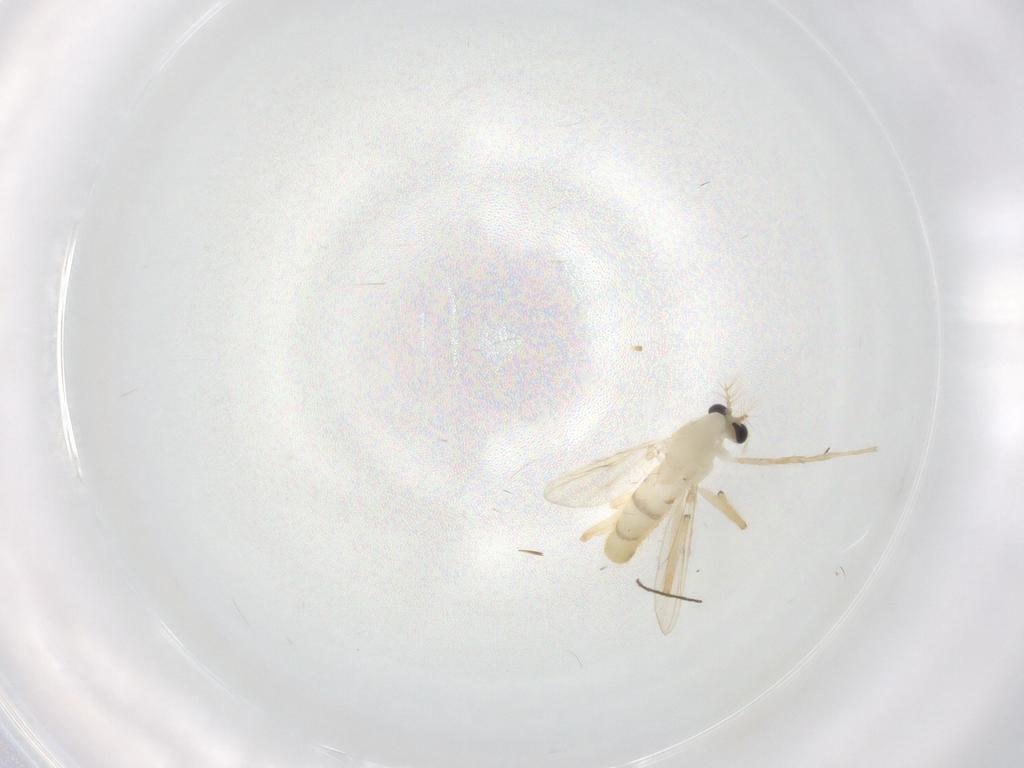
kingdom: Animalia
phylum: Arthropoda
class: Insecta
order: Diptera
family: Chironomidae
